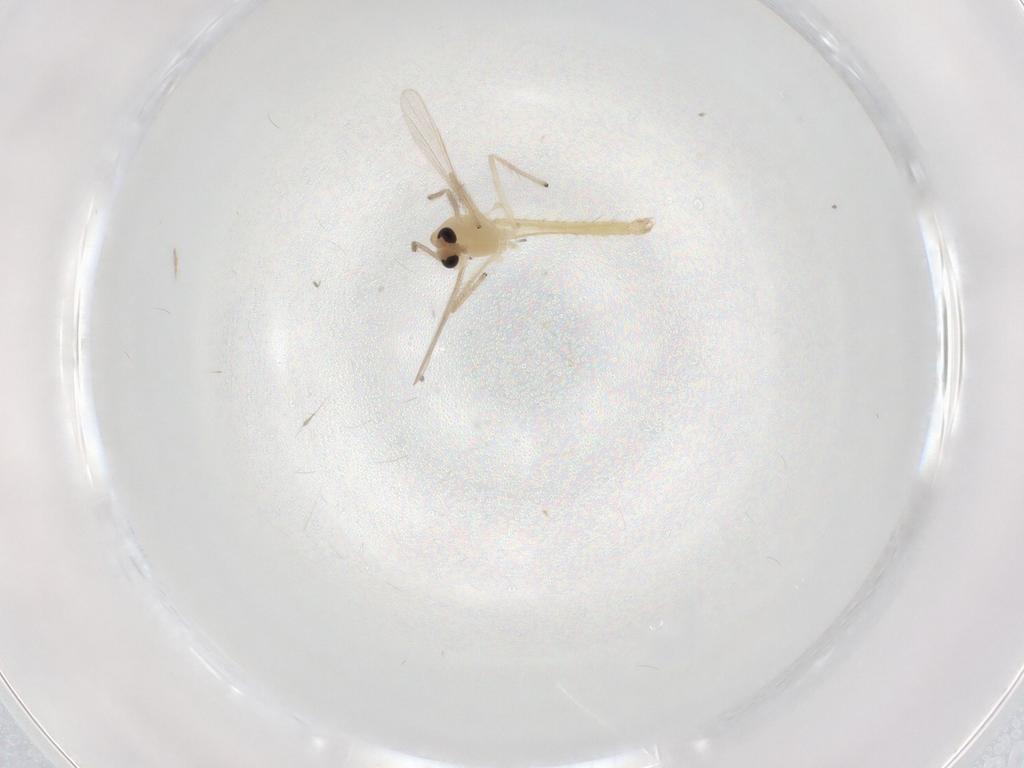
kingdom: Animalia
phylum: Arthropoda
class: Insecta
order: Diptera
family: Chironomidae
